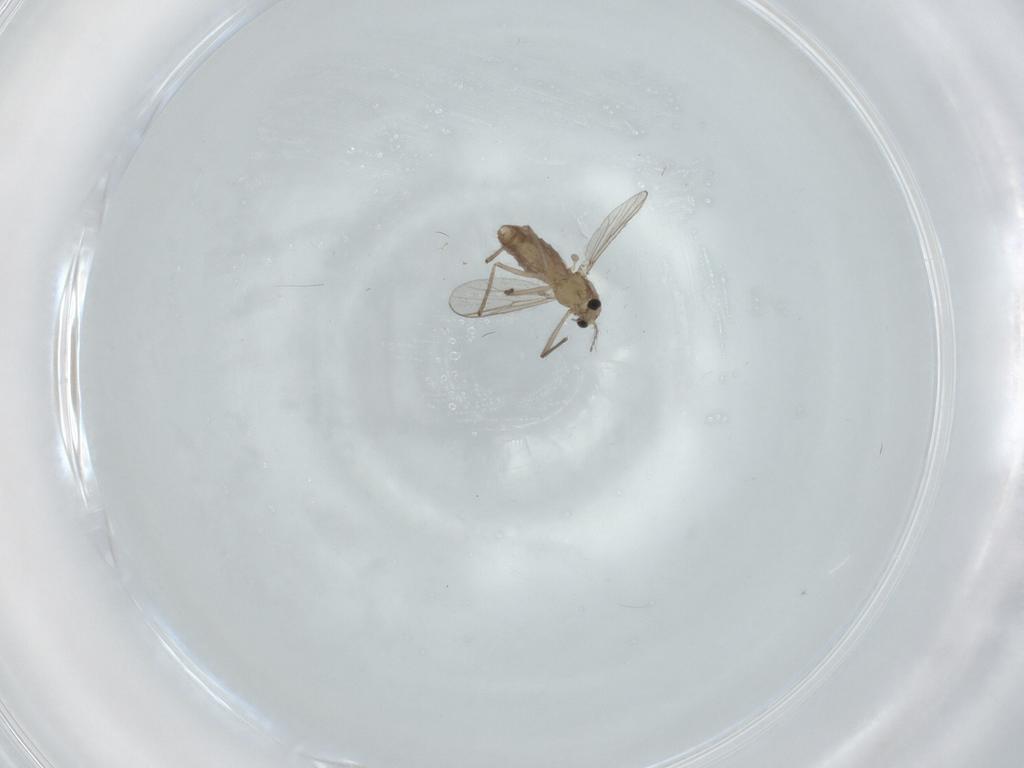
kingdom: Animalia
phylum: Arthropoda
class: Insecta
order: Diptera
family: Chironomidae
